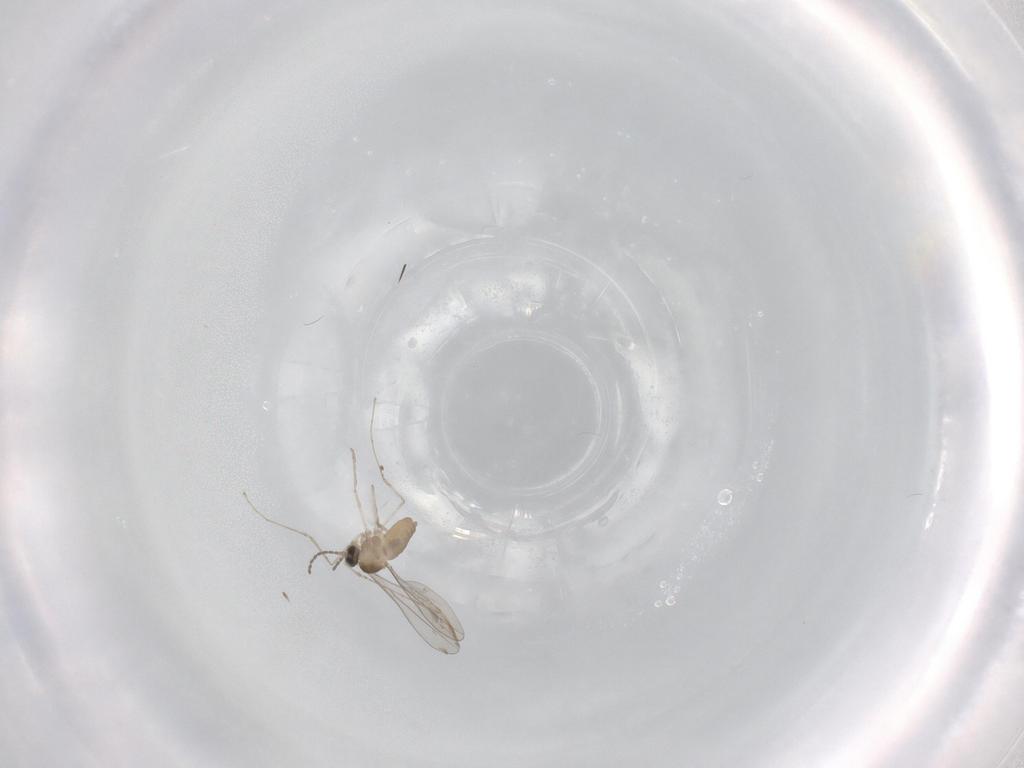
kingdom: Animalia
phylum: Arthropoda
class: Insecta
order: Diptera
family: Cecidomyiidae
